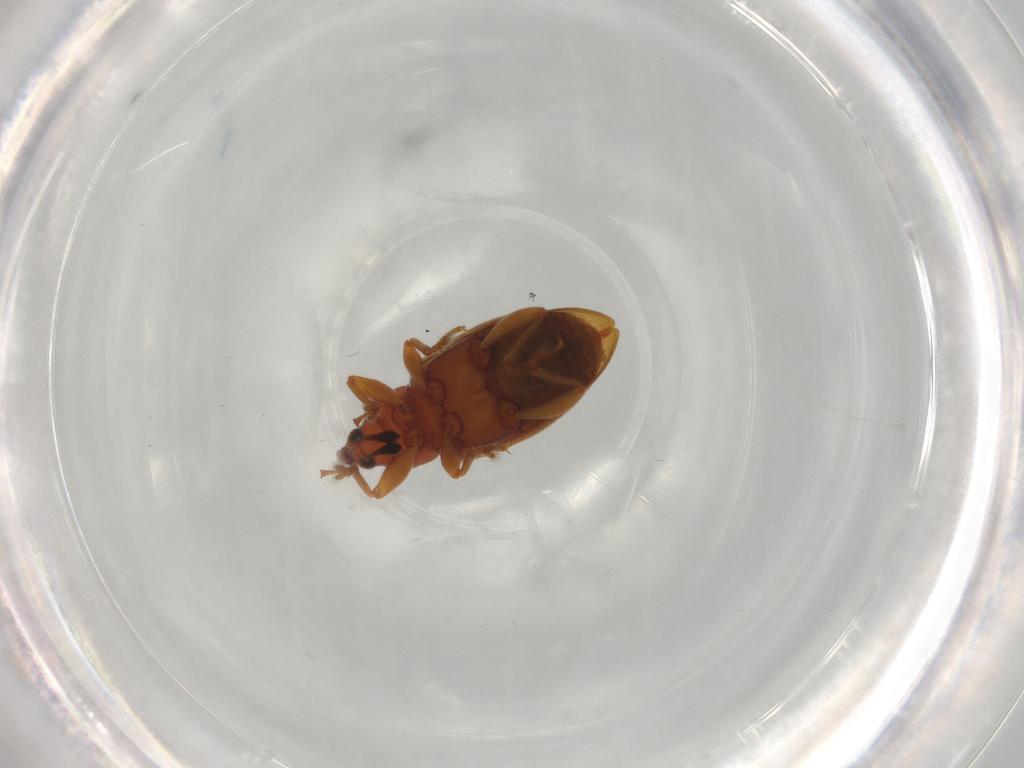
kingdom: Animalia
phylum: Arthropoda
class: Insecta
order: Coleoptera
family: Curculionidae
